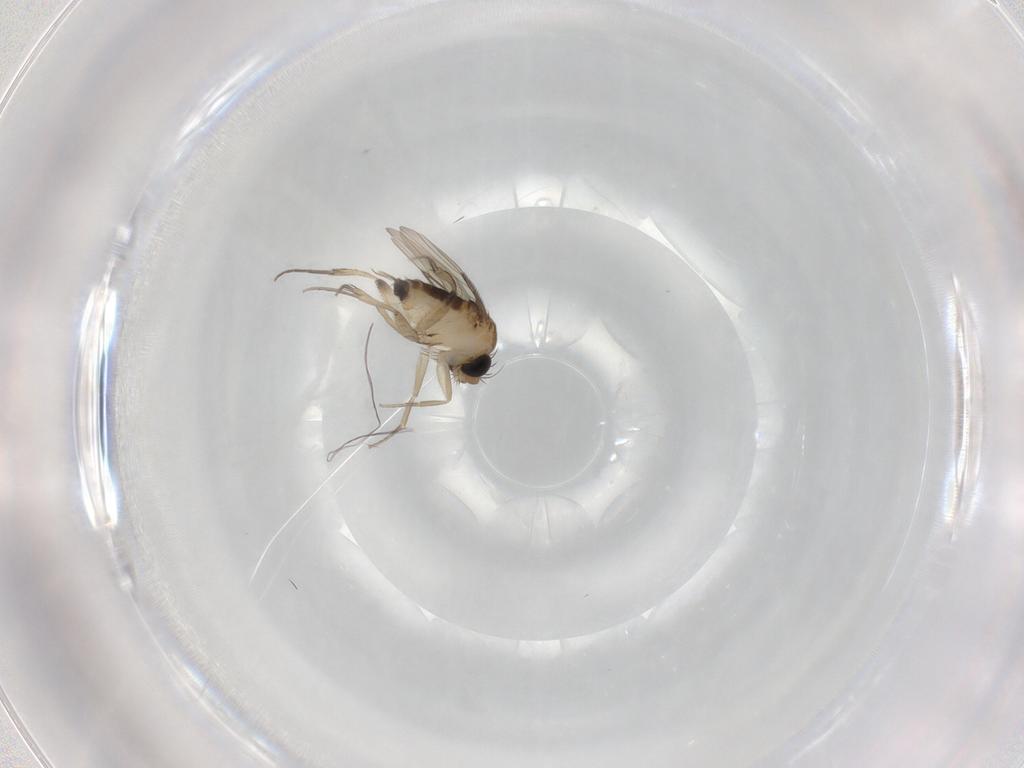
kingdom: Animalia
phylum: Arthropoda
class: Insecta
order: Diptera
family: Phoridae
